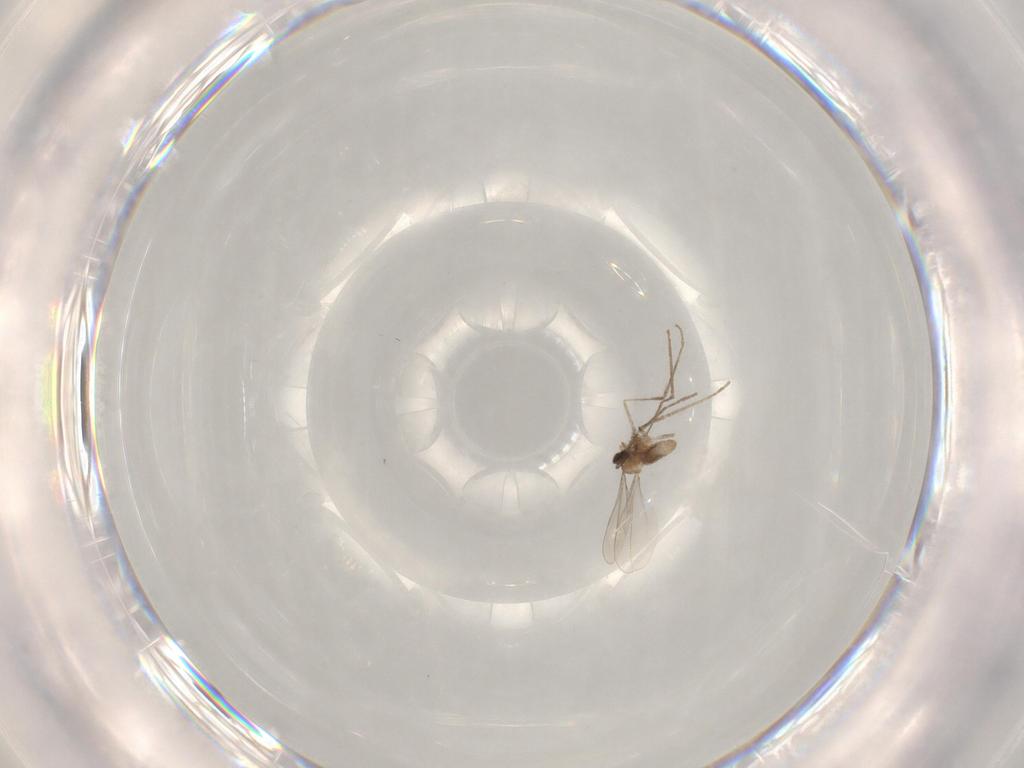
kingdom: Animalia
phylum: Arthropoda
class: Insecta
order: Diptera
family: Cecidomyiidae
